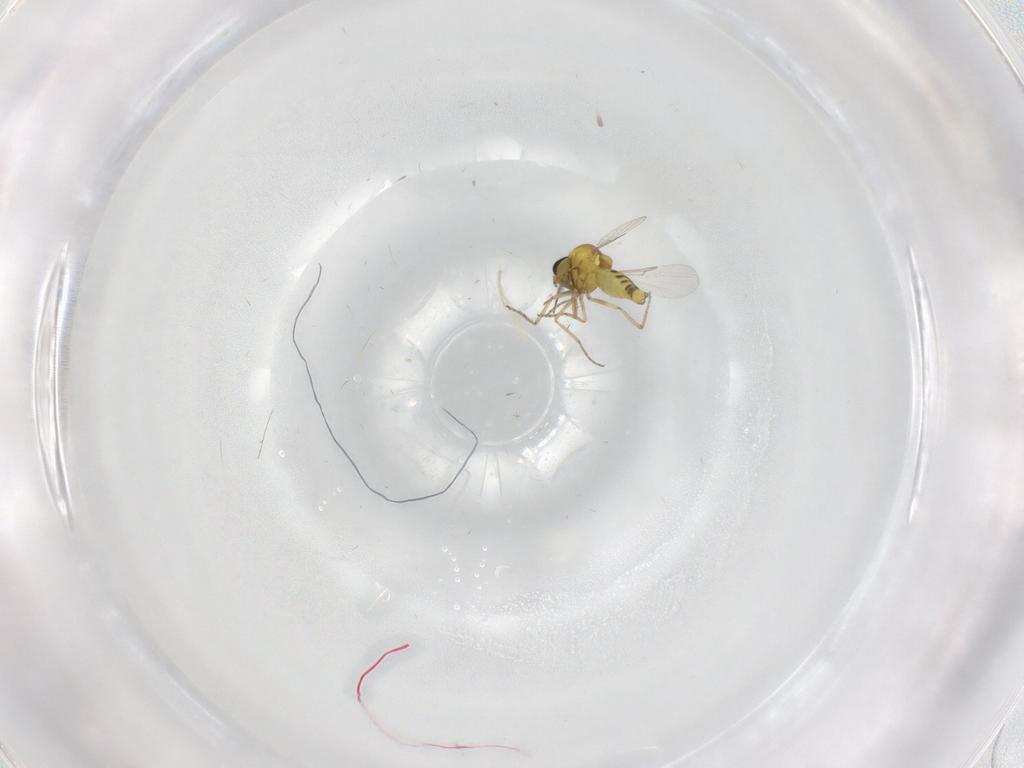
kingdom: Animalia
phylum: Arthropoda
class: Insecta
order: Diptera
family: Ceratopogonidae
